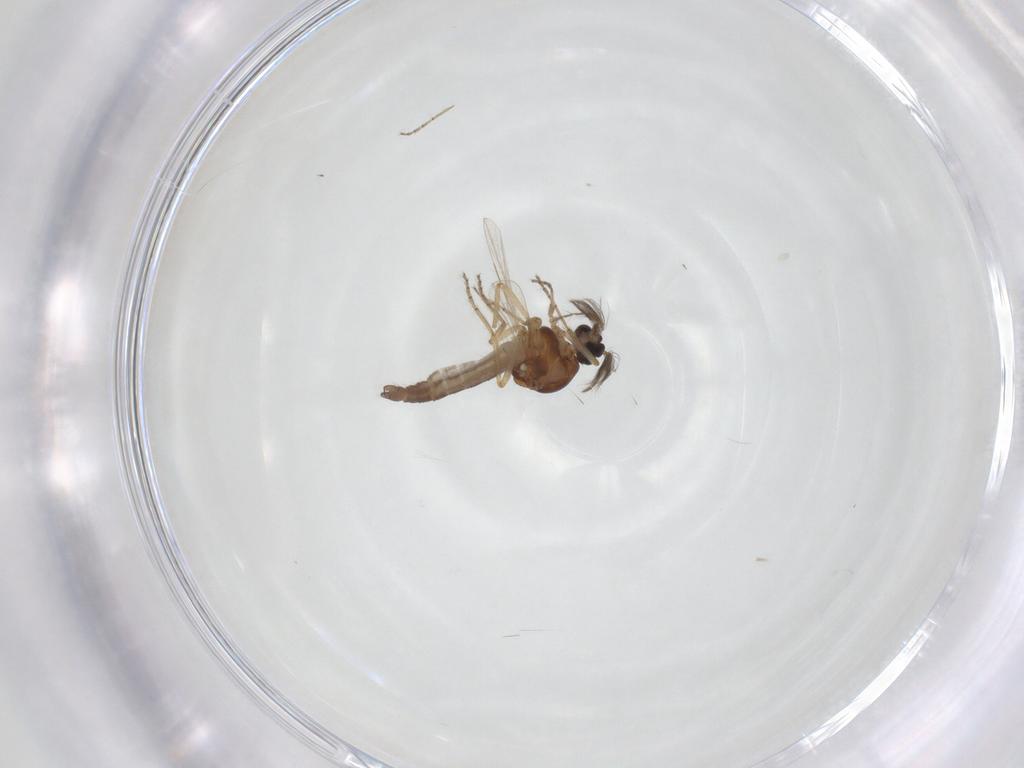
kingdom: Animalia
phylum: Arthropoda
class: Insecta
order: Diptera
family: Ceratopogonidae
